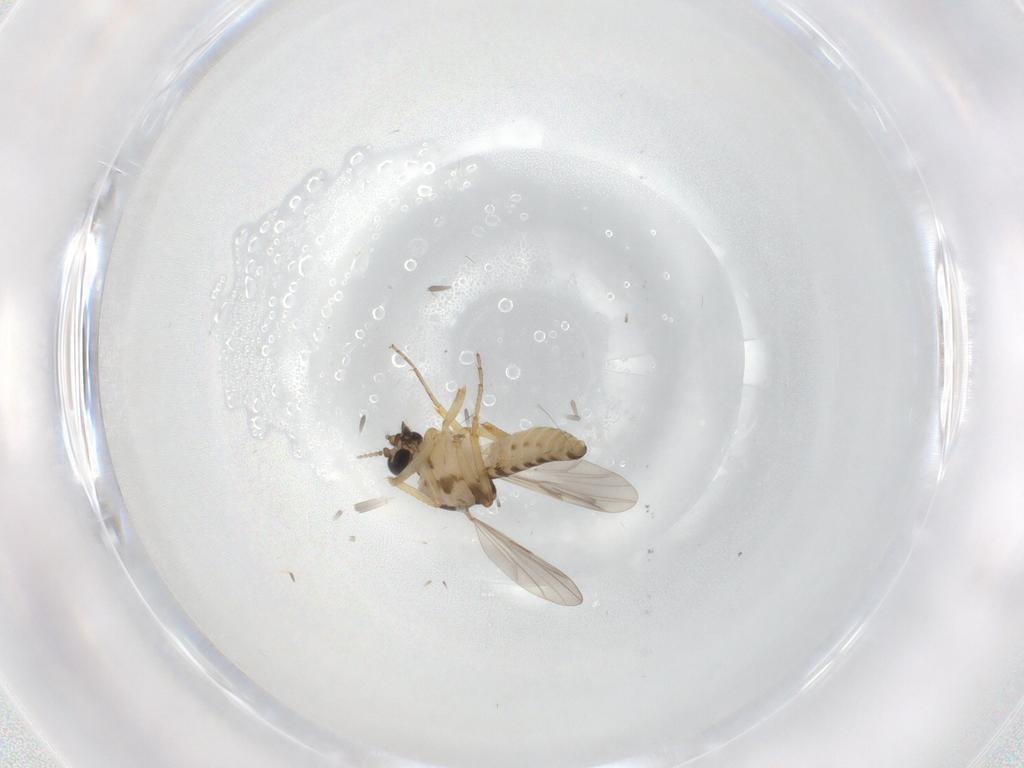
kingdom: Animalia
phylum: Arthropoda
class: Insecta
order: Diptera
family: Ceratopogonidae
